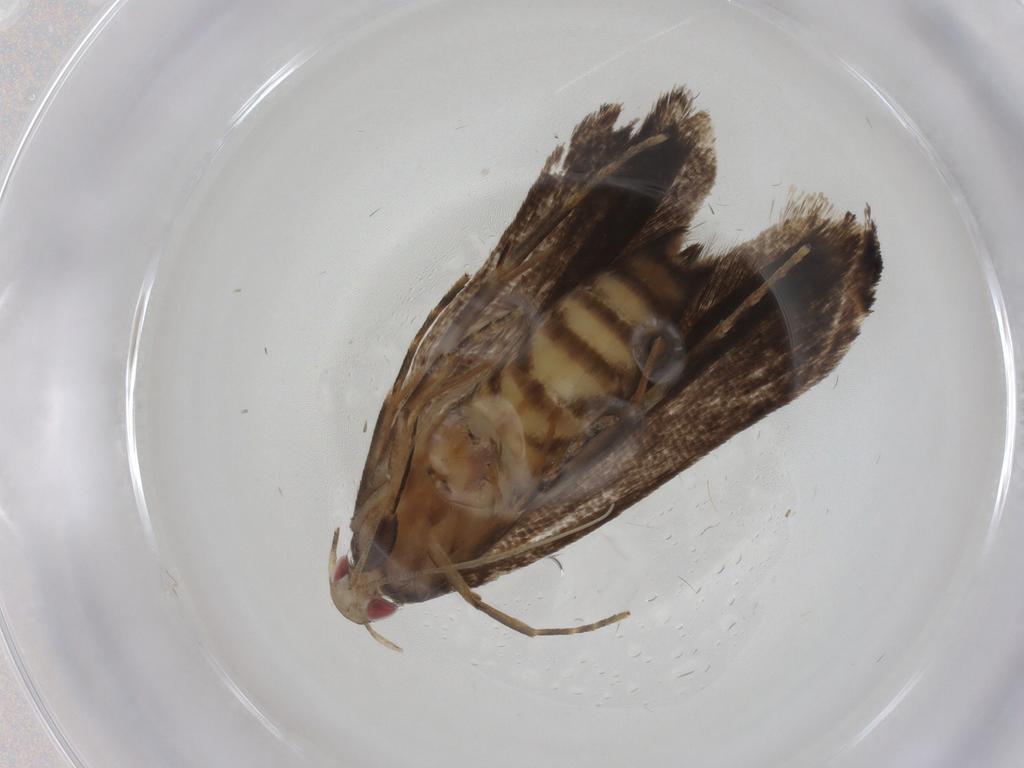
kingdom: Animalia
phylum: Arthropoda
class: Insecta
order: Lepidoptera
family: Gelechiidae
